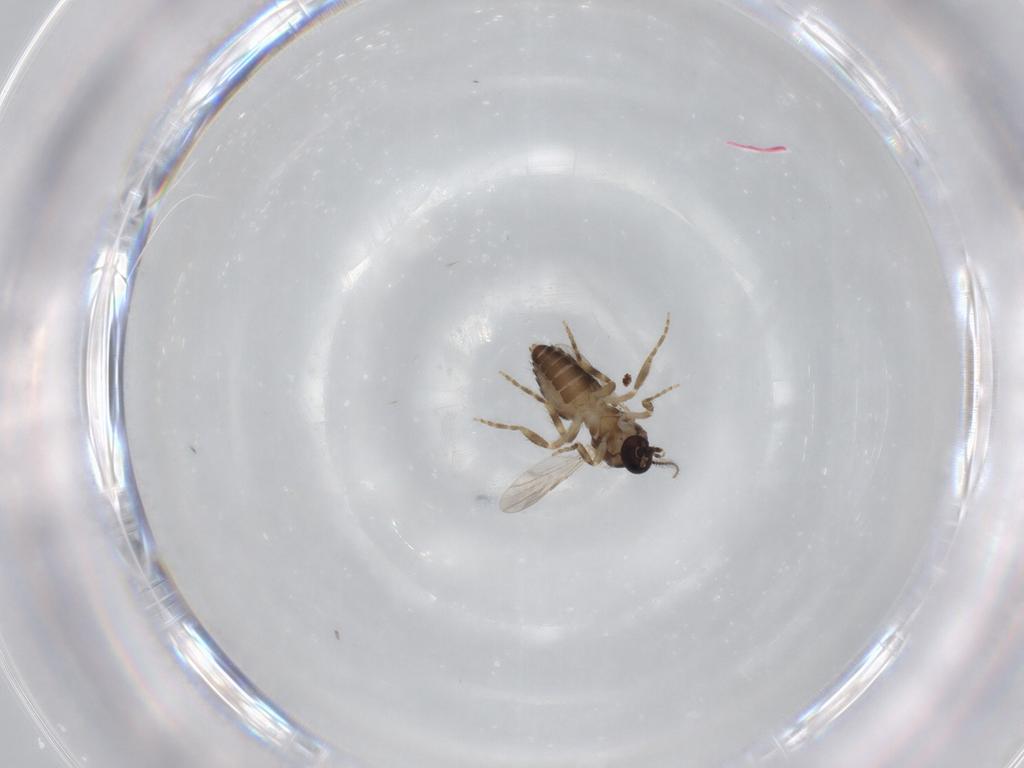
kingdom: Animalia
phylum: Arthropoda
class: Insecta
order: Diptera
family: Ceratopogonidae
